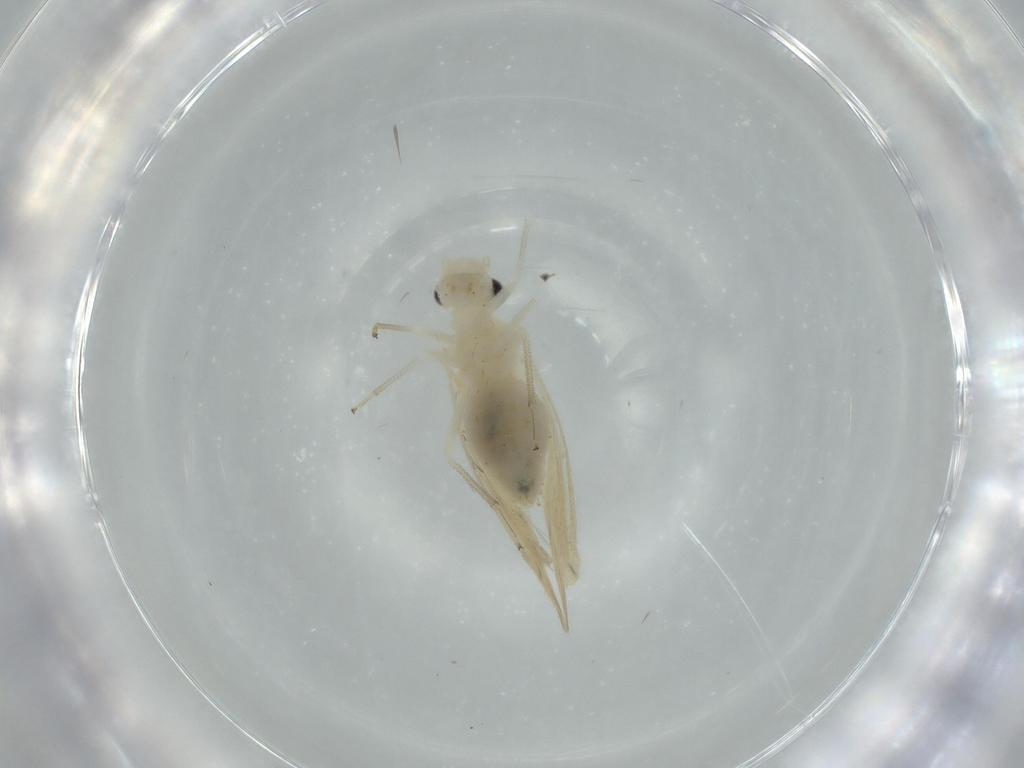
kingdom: Animalia
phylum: Arthropoda
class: Insecta
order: Psocodea
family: Caeciliusidae
